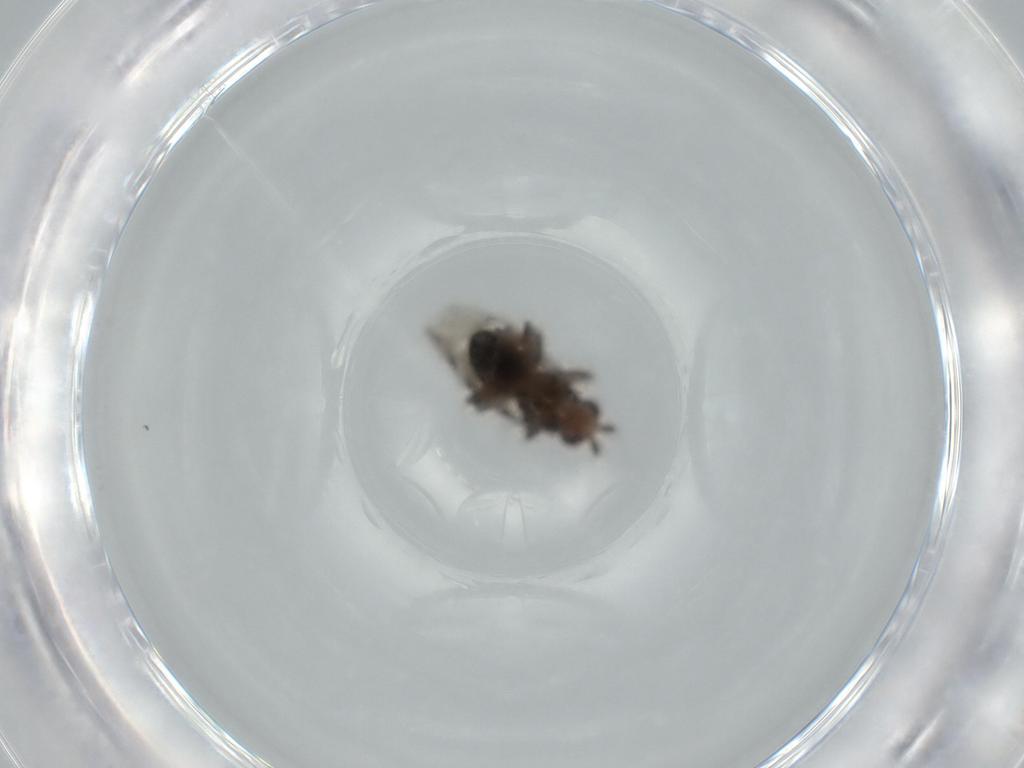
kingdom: Animalia
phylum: Arthropoda
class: Insecta
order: Diptera
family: Sphaeroceridae
